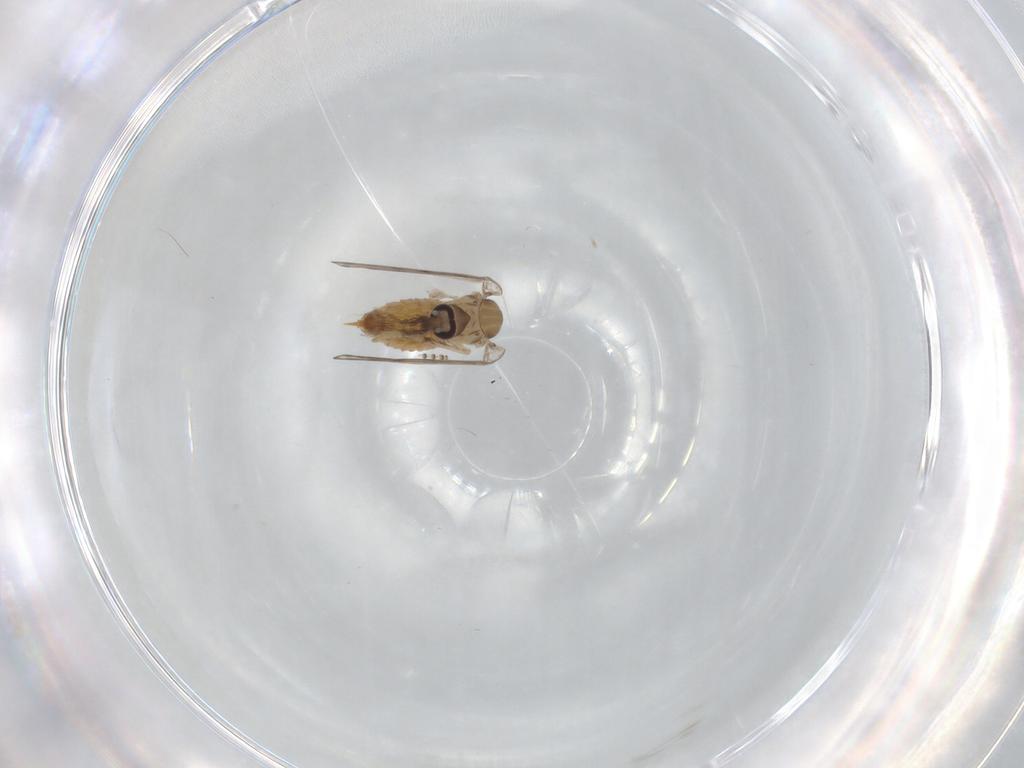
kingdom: Animalia
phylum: Arthropoda
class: Insecta
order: Diptera
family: Psychodidae
